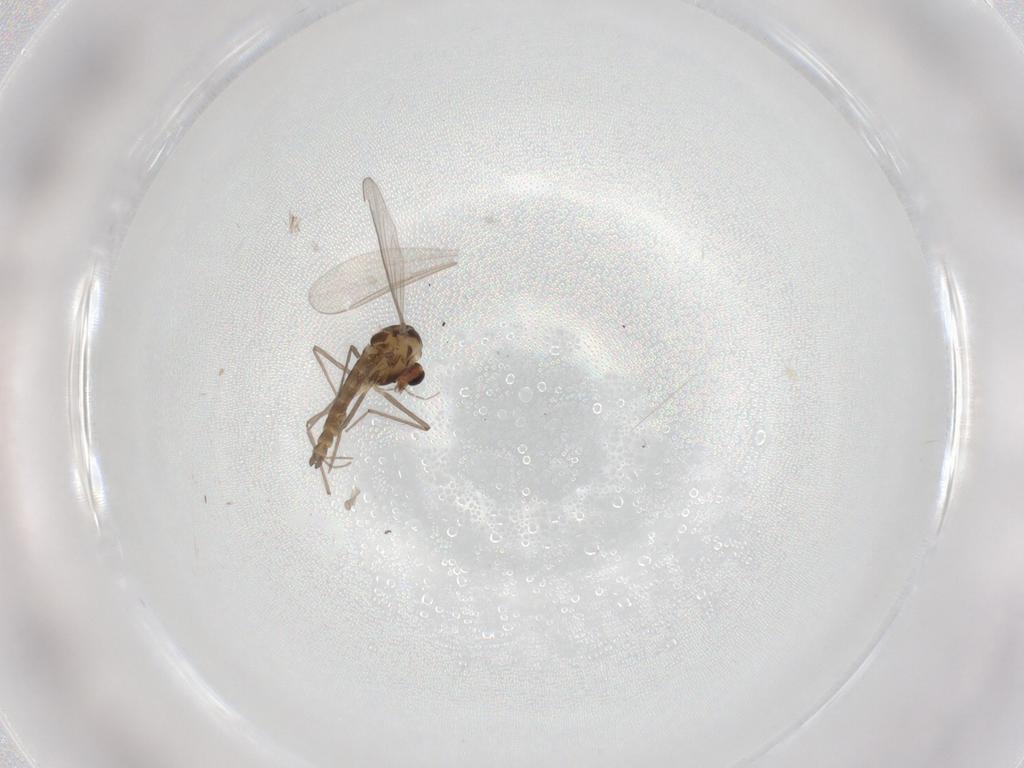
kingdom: Animalia
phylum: Arthropoda
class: Insecta
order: Diptera
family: Chironomidae
